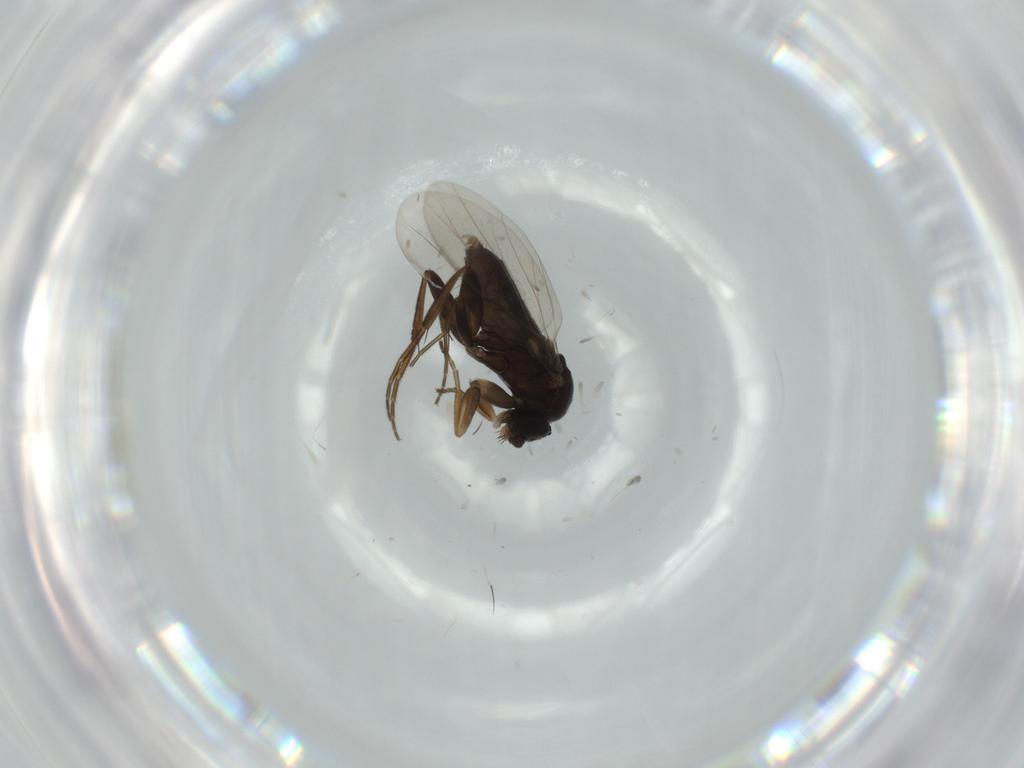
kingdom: Animalia
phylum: Arthropoda
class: Insecta
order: Diptera
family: Phoridae
